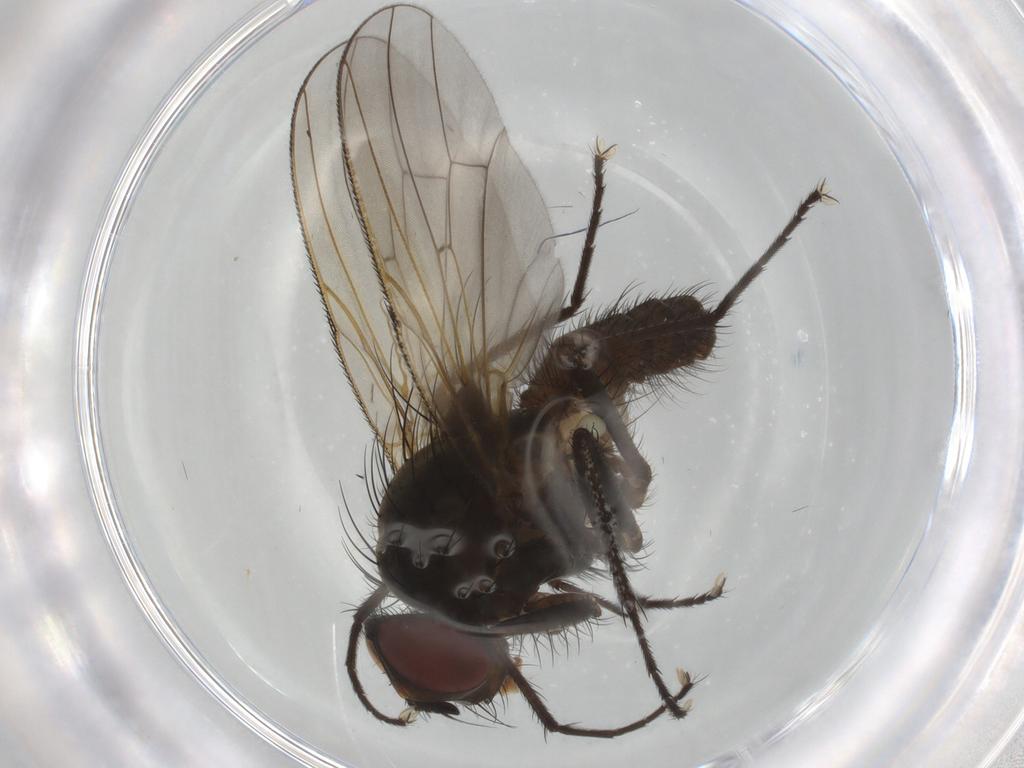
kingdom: Animalia
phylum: Arthropoda
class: Insecta
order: Diptera
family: Anthomyiidae
